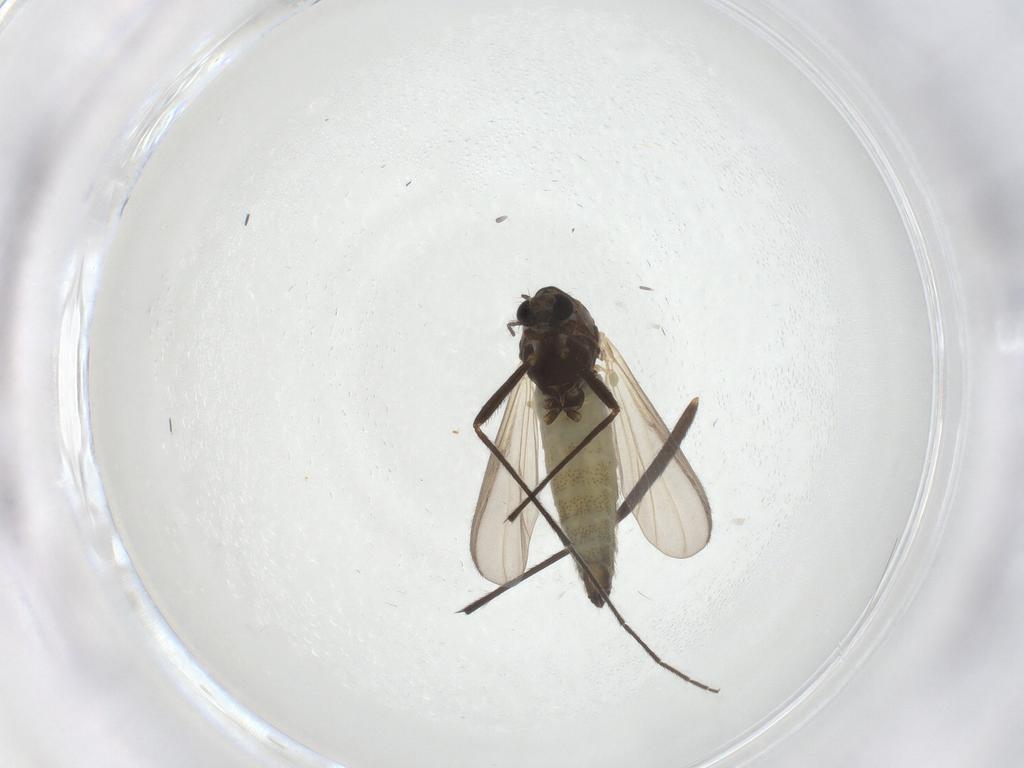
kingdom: Animalia
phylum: Arthropoda
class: Insecta
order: Diptera
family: Chironomidae
